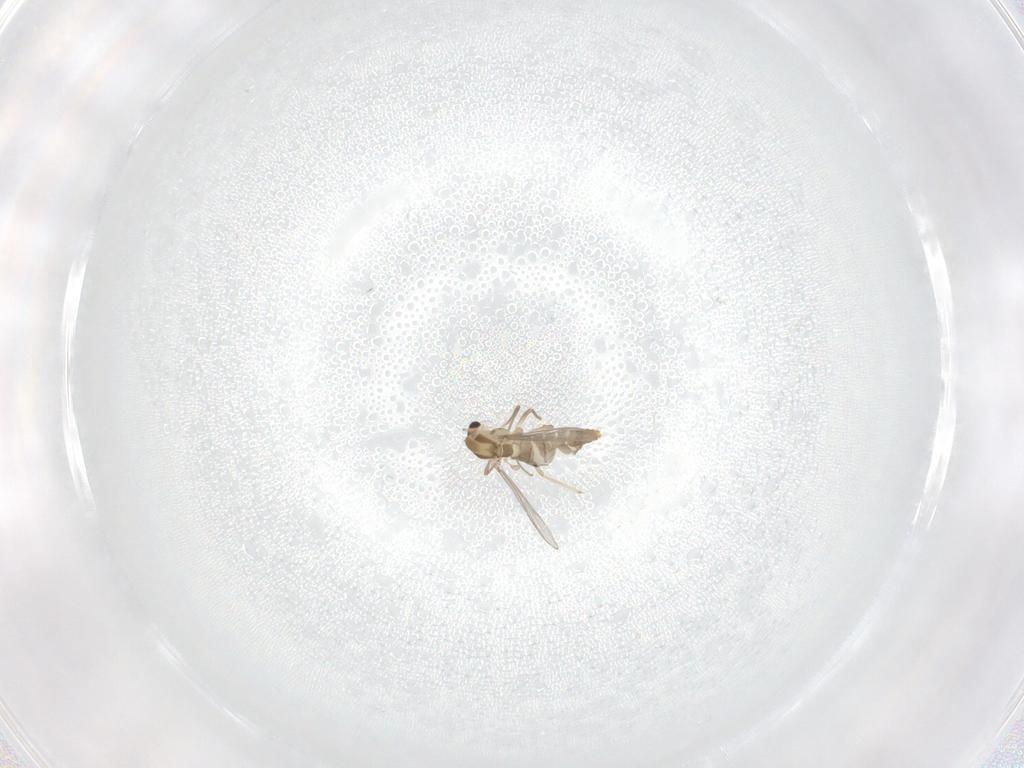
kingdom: Animalia
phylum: Arthropoda
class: Insecta
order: Diptera
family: Chironomidae
